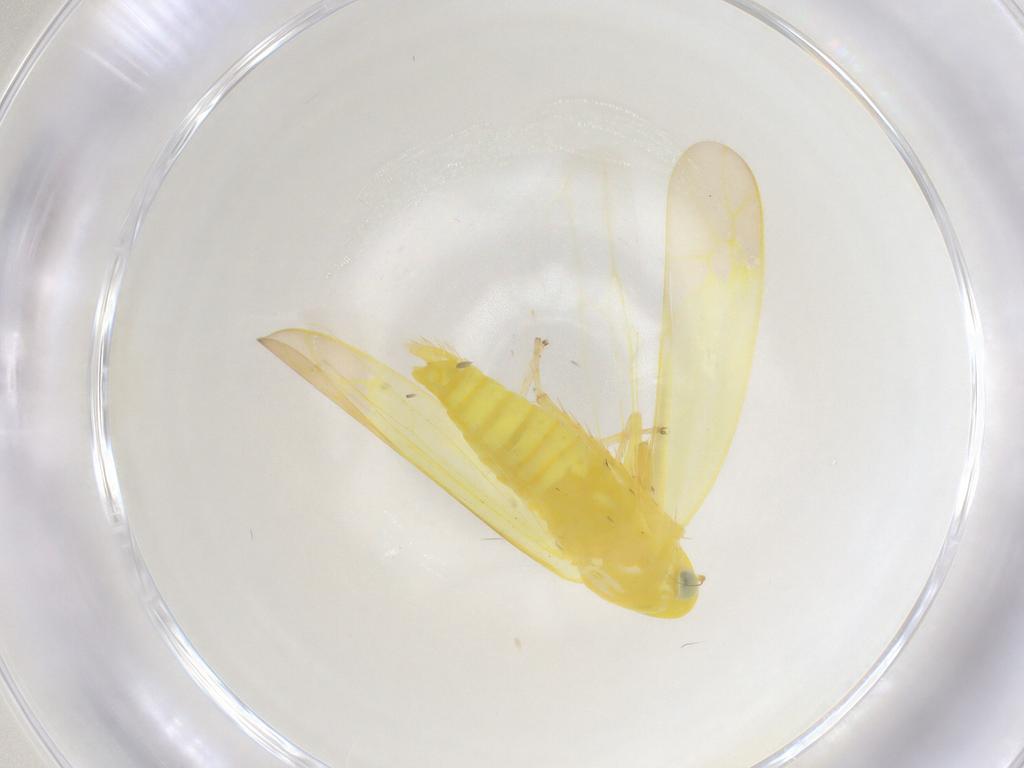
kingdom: Animalia
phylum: Arthropoda
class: Insecta
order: Hemiptera
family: Cicadellidae
